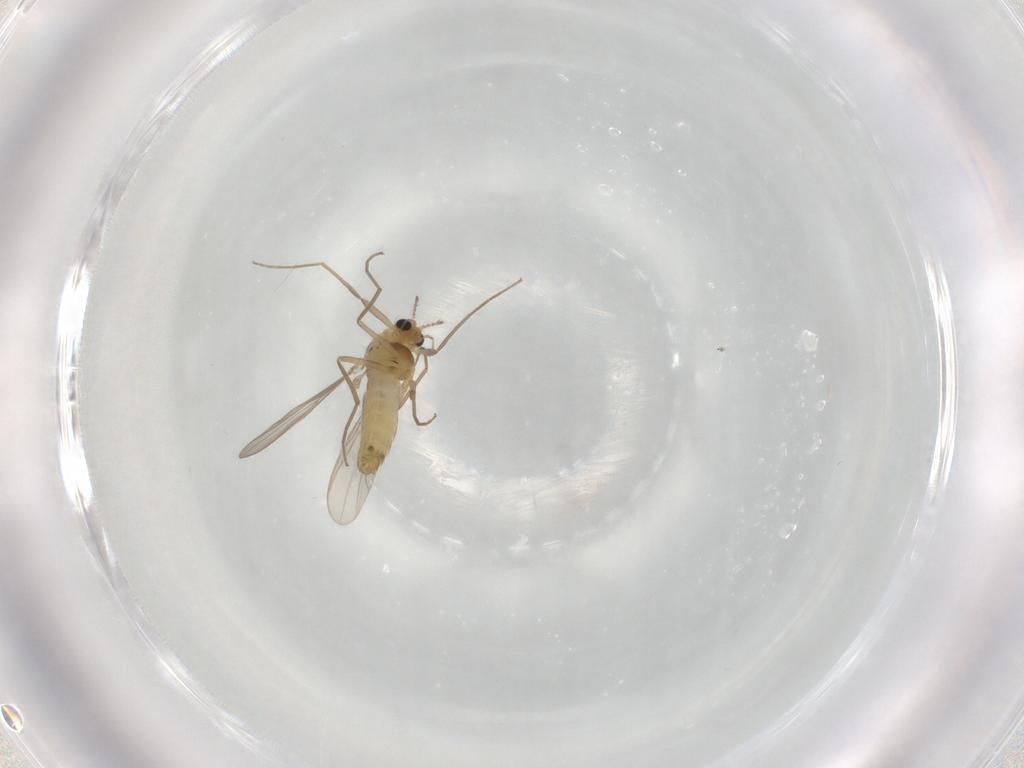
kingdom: Animalia
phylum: Arthropoda
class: Insecta
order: Diptera
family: Chironomidae
